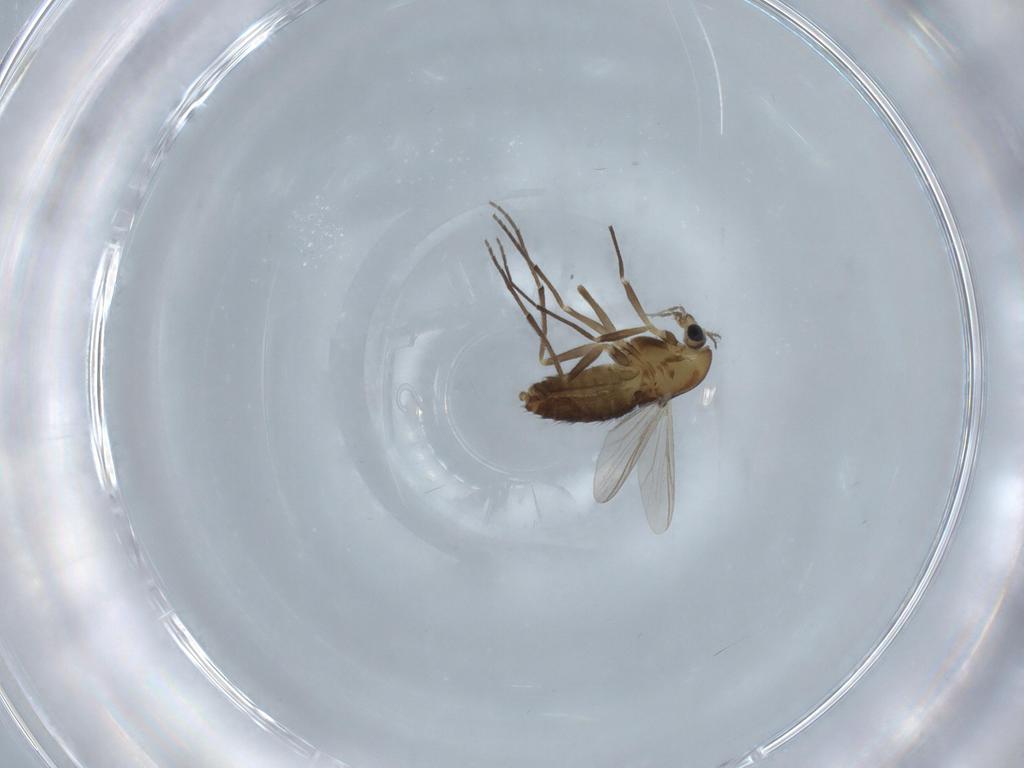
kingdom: Animalia
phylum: Arthropoda
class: Insecta
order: Diptera
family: Chironomidae
